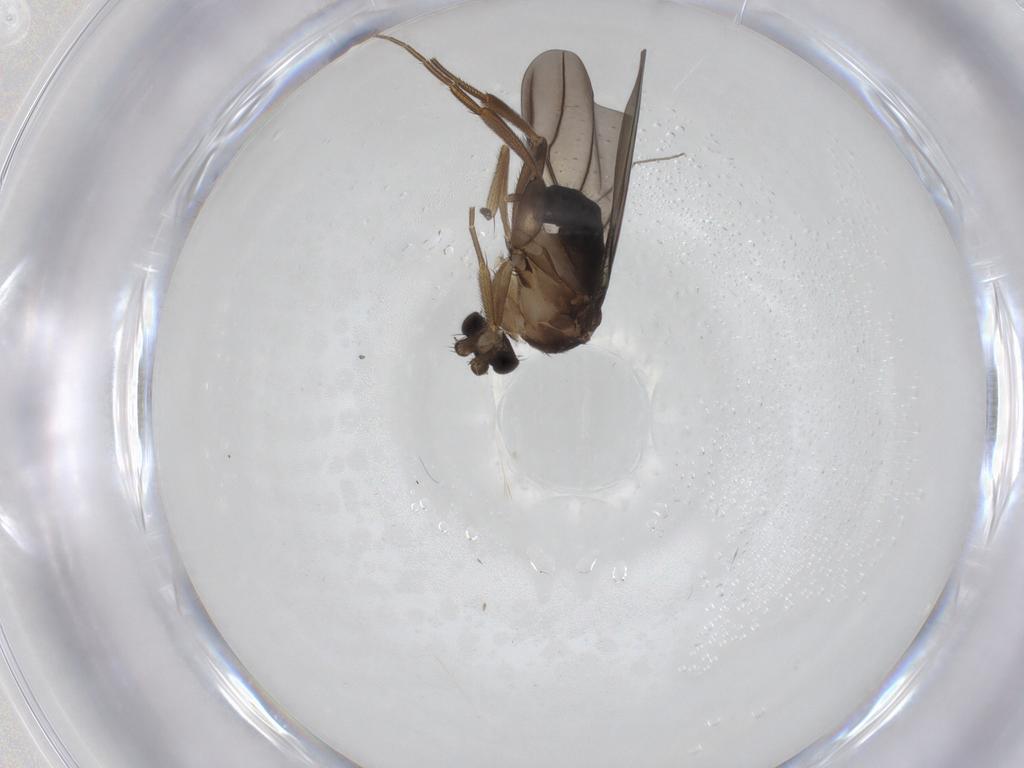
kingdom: Animalia
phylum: Arthropoda
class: Insecta
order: Diptera
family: Phoridae
